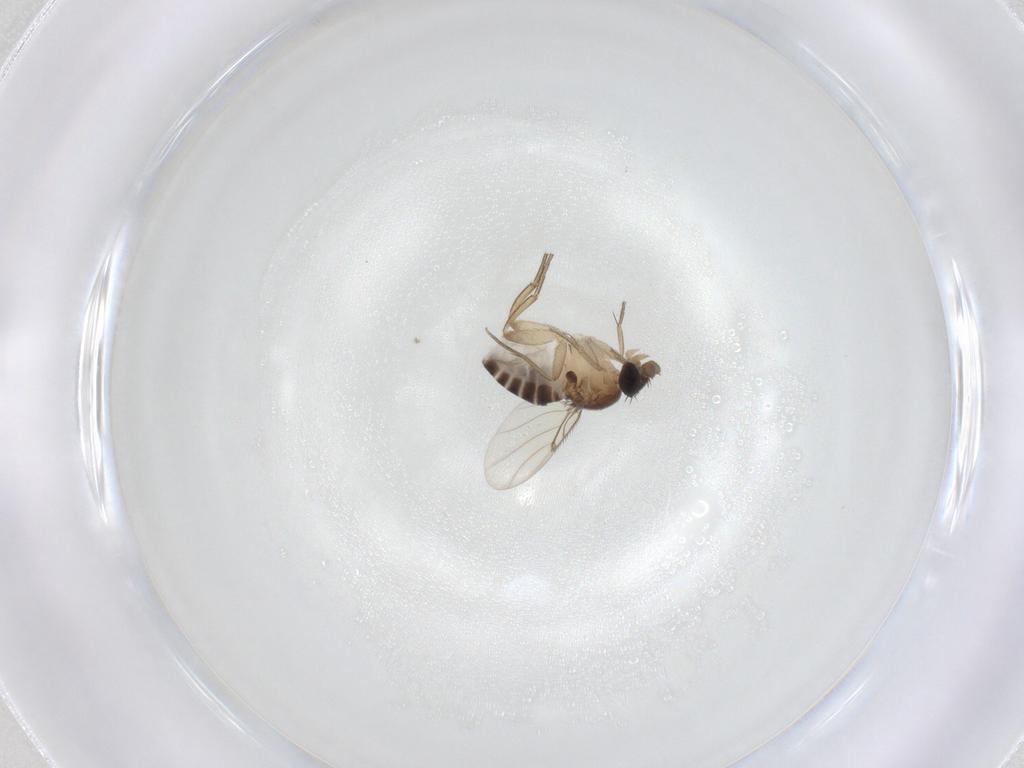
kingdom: Animalia
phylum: Arthropoda
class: Insecta
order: Diptera
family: Dolichopodidae
